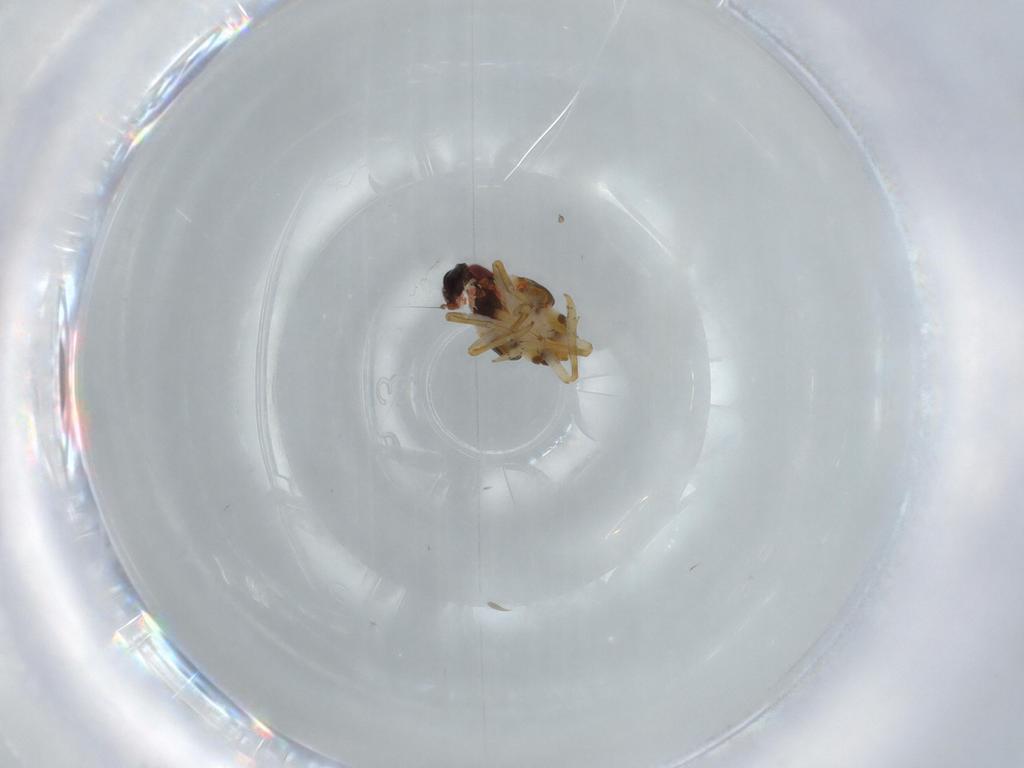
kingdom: Animalia
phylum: Arthropoda
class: Insecta
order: Hemiptera
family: Issidae
